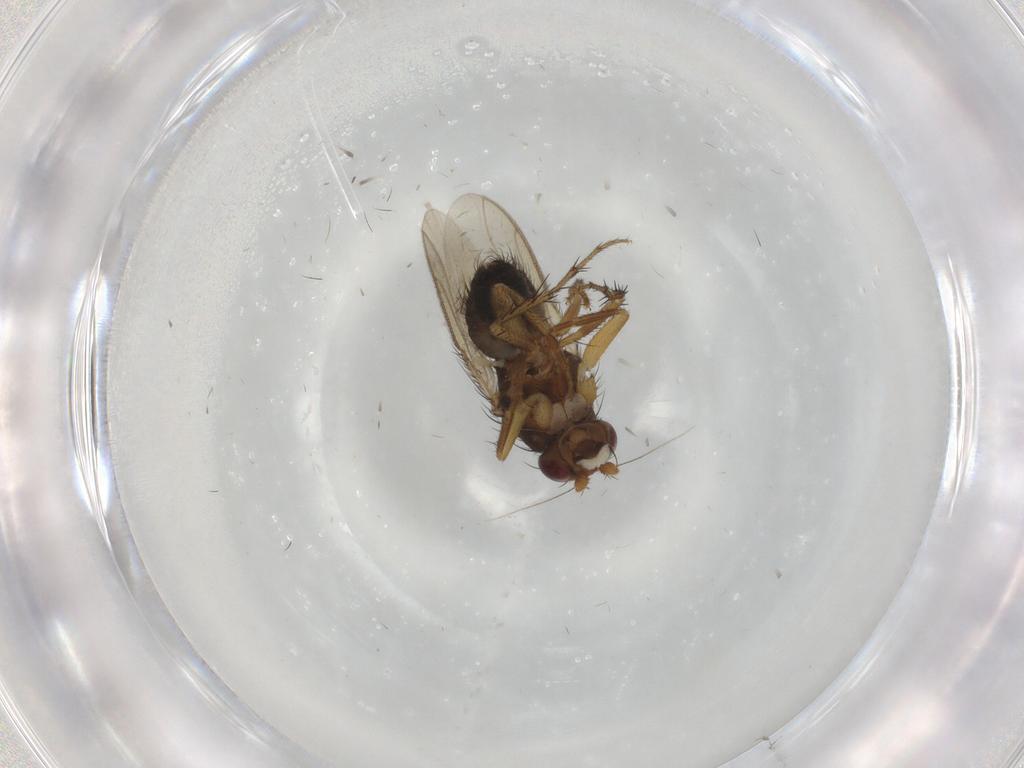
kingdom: Animalia
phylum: Arthropoda
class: Insecta
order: Diptera
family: Sphaeroceridae
